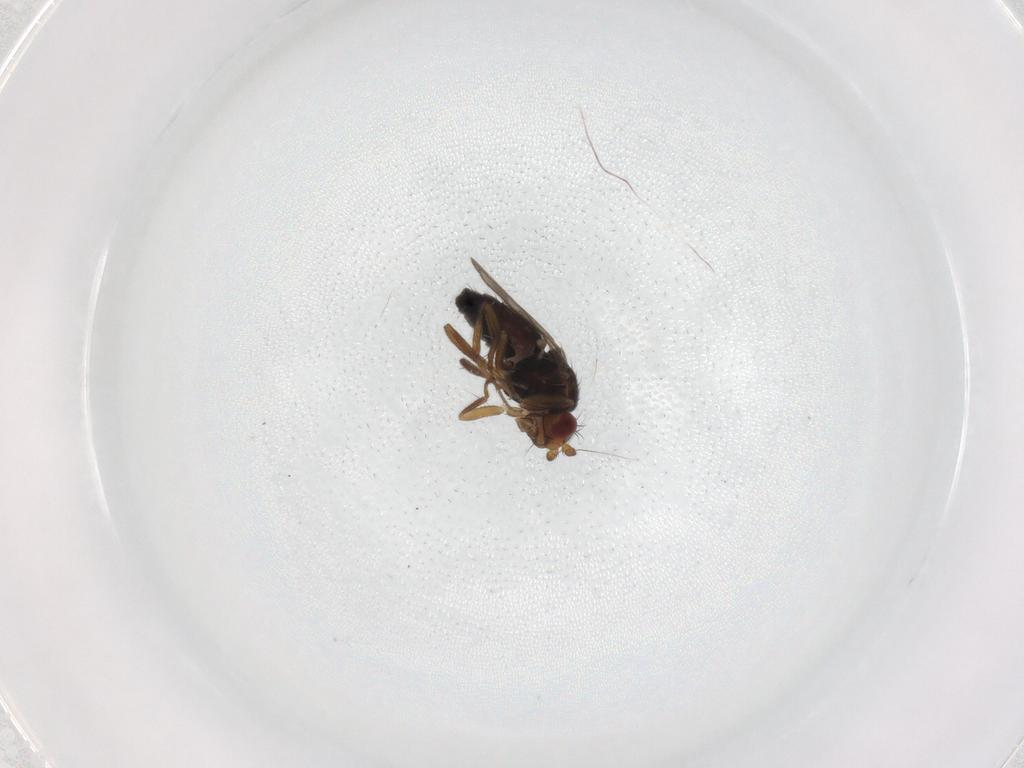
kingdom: Animalia
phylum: Arthropoda
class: Insecta
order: Diptera
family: Sphaeroceridae
